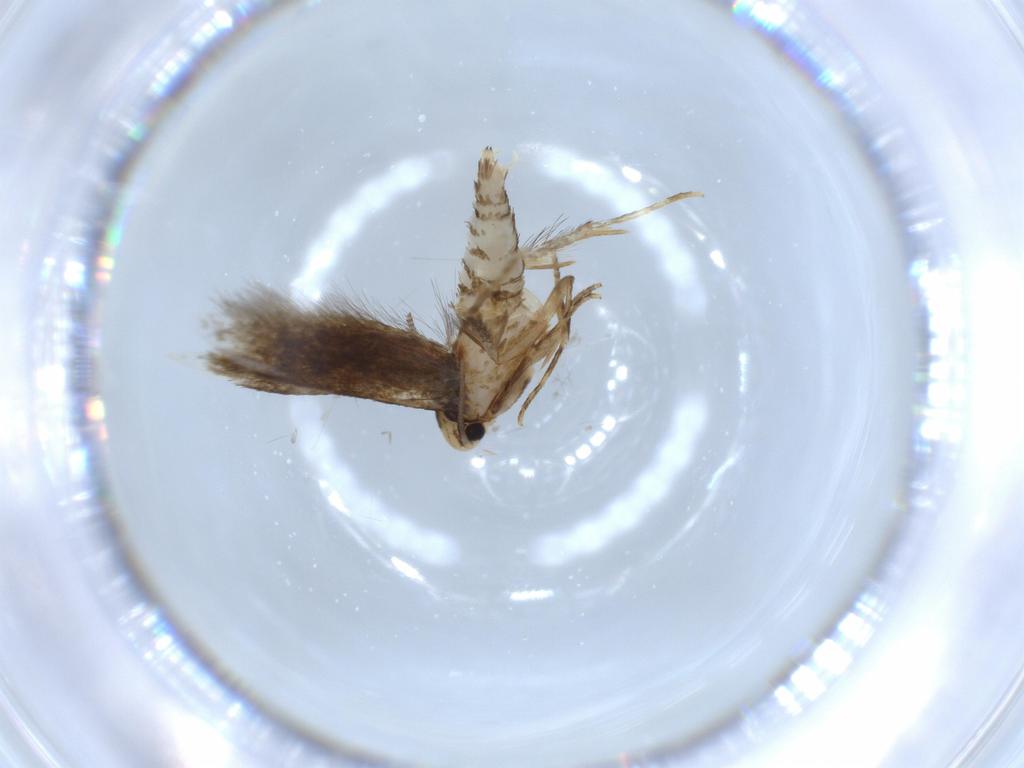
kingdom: Animalia
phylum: Arthropoda
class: Insecta
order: Lepidoptera
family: Tineidae
